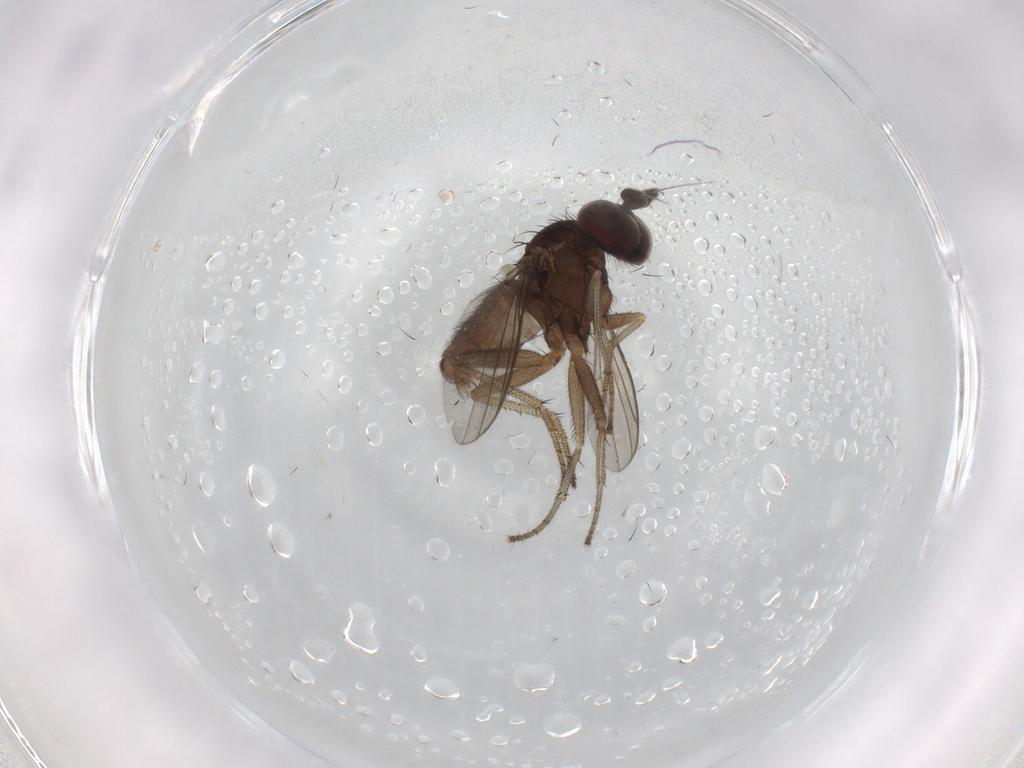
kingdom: Animalia
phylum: Arthropoda
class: Insecta
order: Diptera
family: Dolichopodidae
